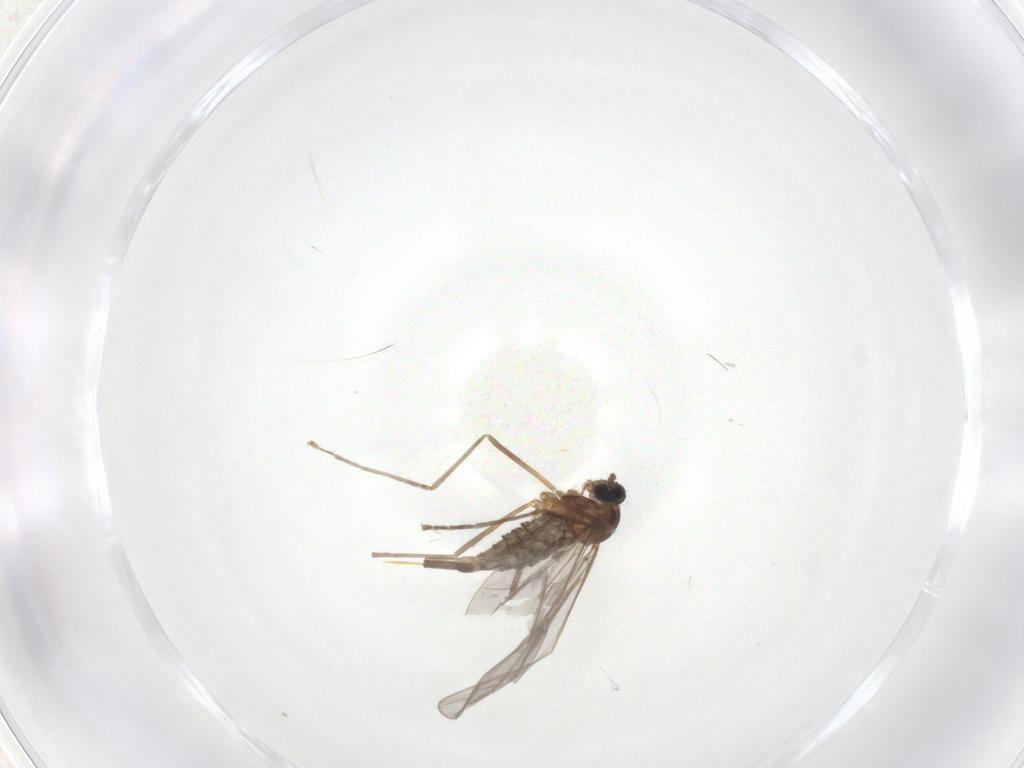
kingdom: Animalia
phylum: Arthropoda
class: Insecta
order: Diptera
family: Cecidomyiidae
